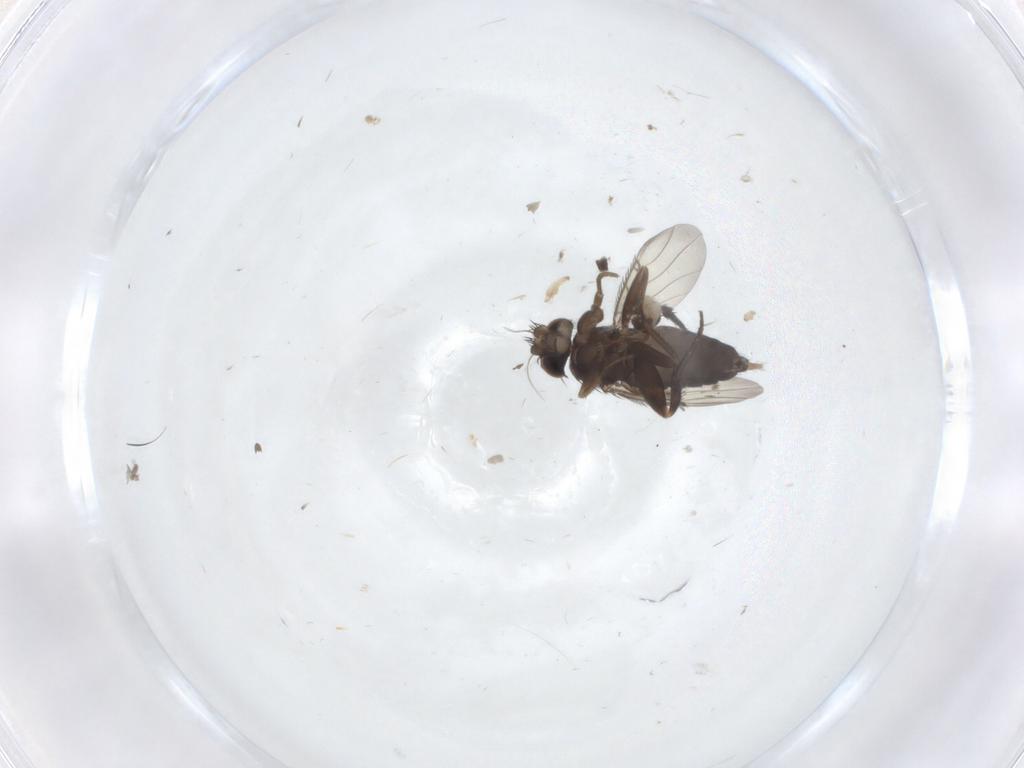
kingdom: Animalia
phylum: Arthropoda
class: Insecta
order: Diptera
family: Phoridae
